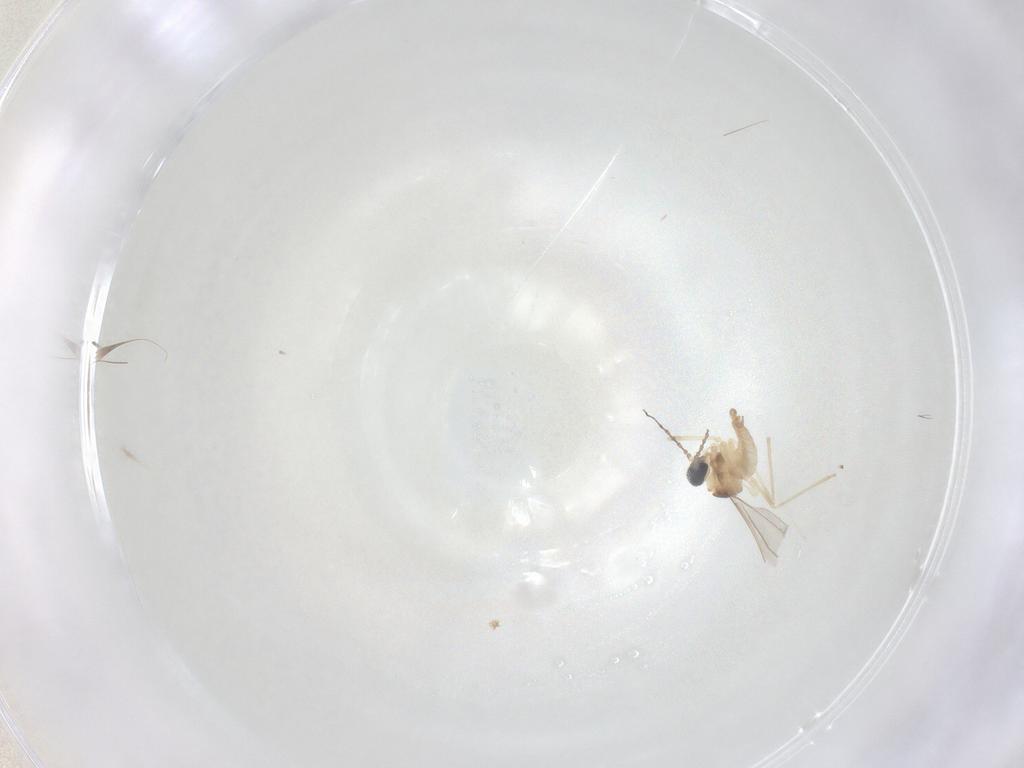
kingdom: Animalia
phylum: Arthropoda
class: Insecta
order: Diptera
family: Cecidomyiidae
